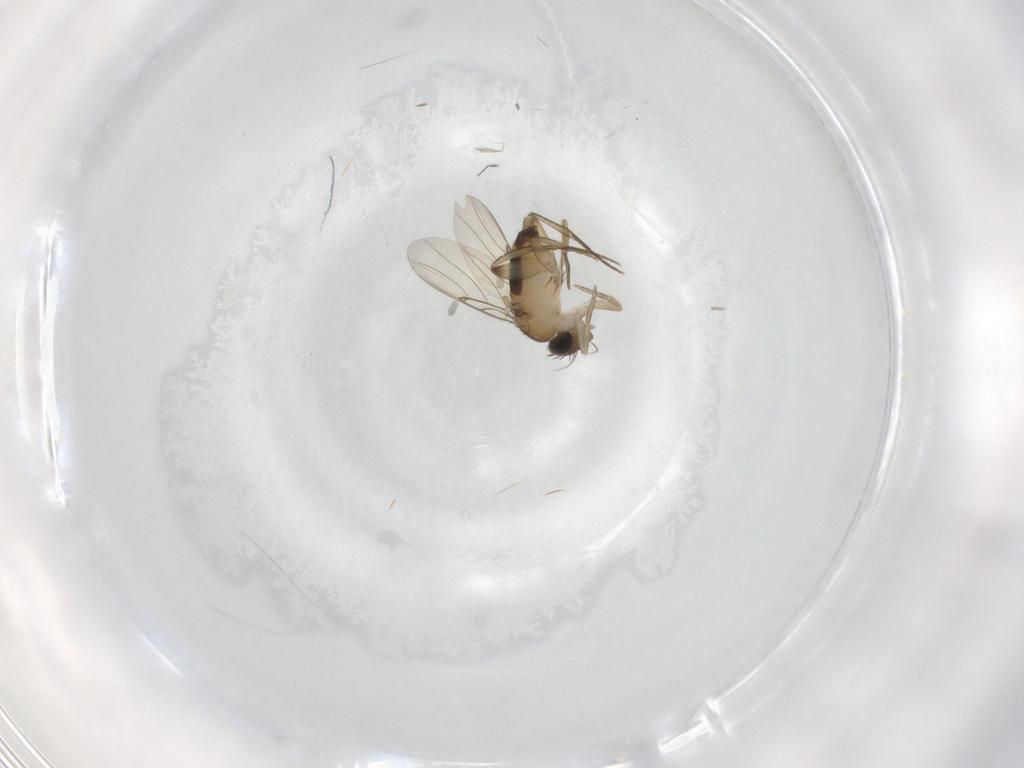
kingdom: Animalia
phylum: Arthropoda
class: Insecta
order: Diptera
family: Phoridae
